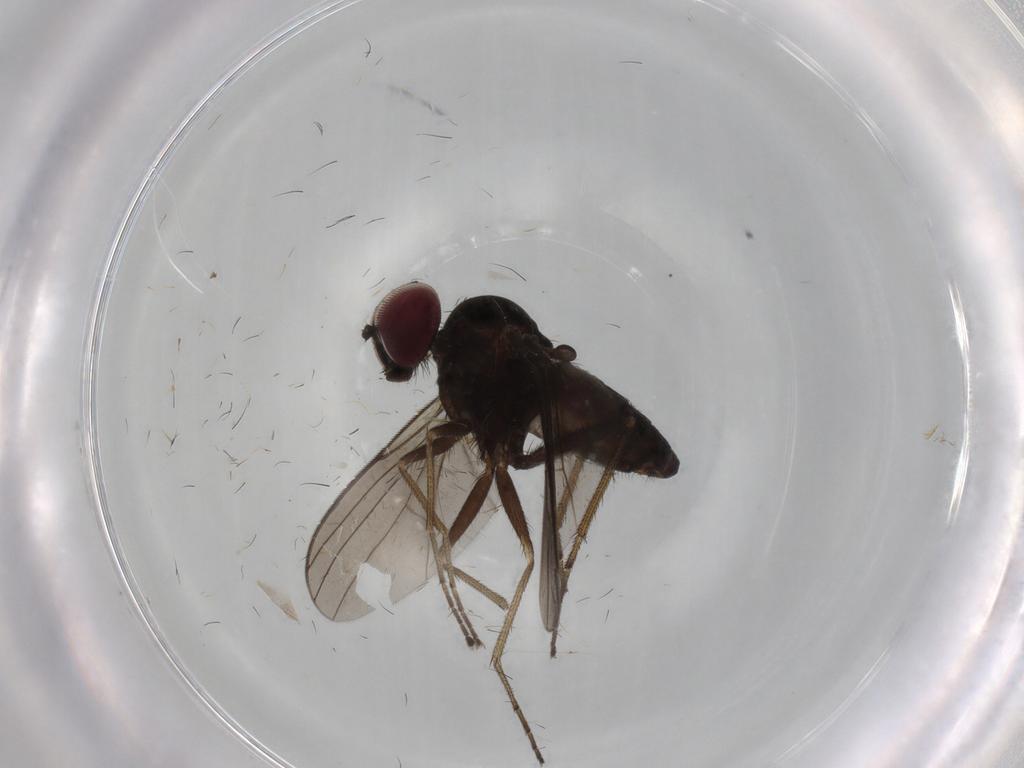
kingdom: Animalia
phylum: Arthropoda
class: Insecta
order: Diptera
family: Dolichopodidae
